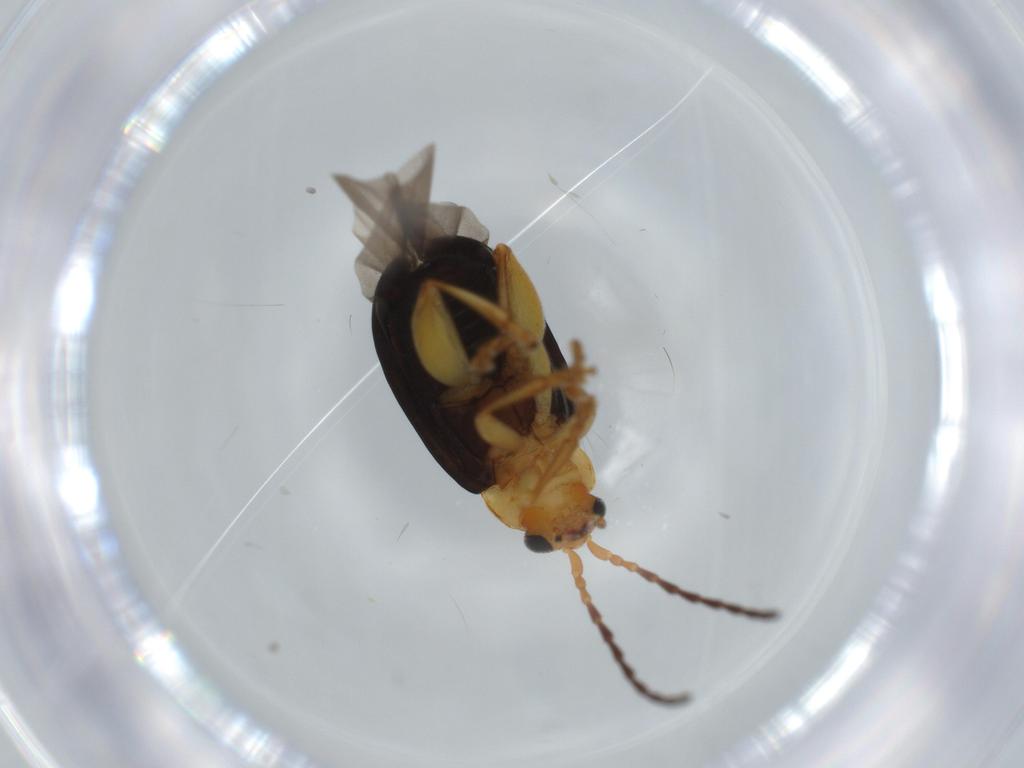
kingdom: Animalia
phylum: Arthropoda
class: Insecta
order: Coleoptera
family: Chrysomelidae
